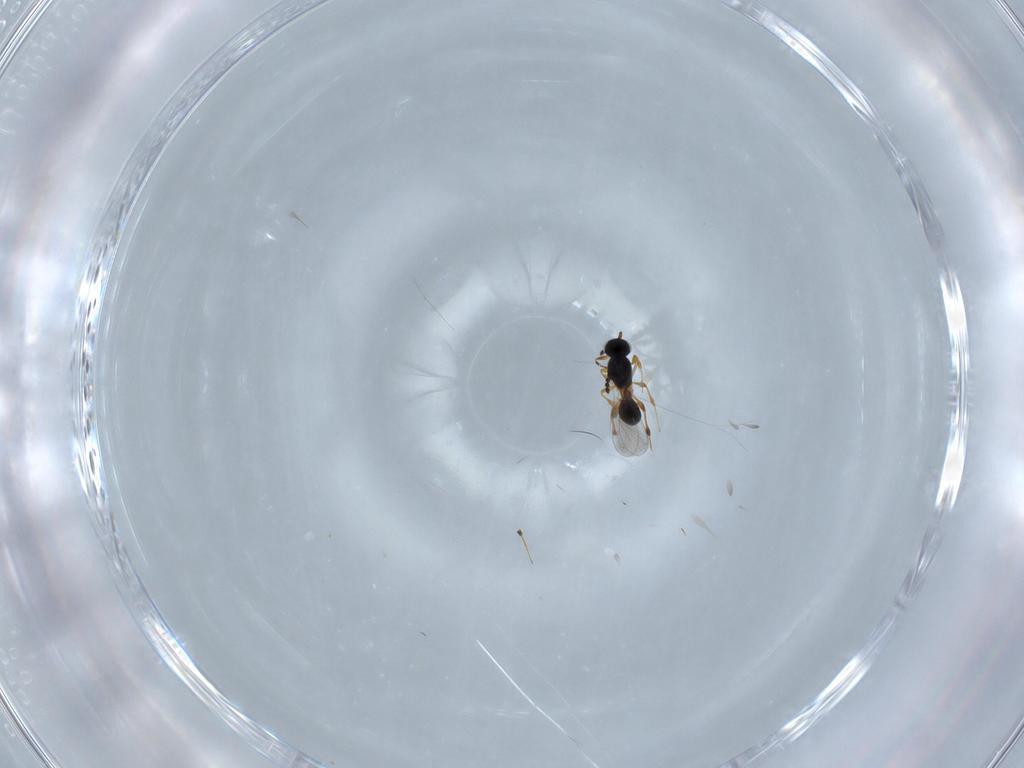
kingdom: Animalia
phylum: Arthropoda
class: Insecta
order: Hymenoptera
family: Platygastridae
